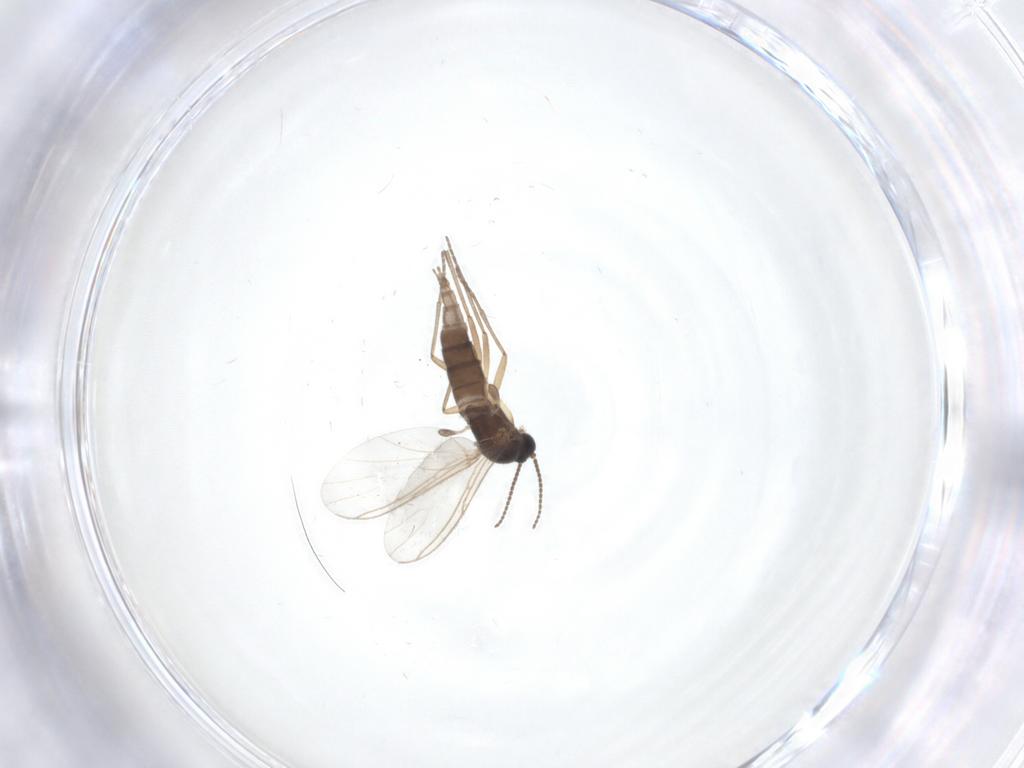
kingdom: Animalia
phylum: Arthropoda
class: Insecta
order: Diptera
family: Sciaridae
